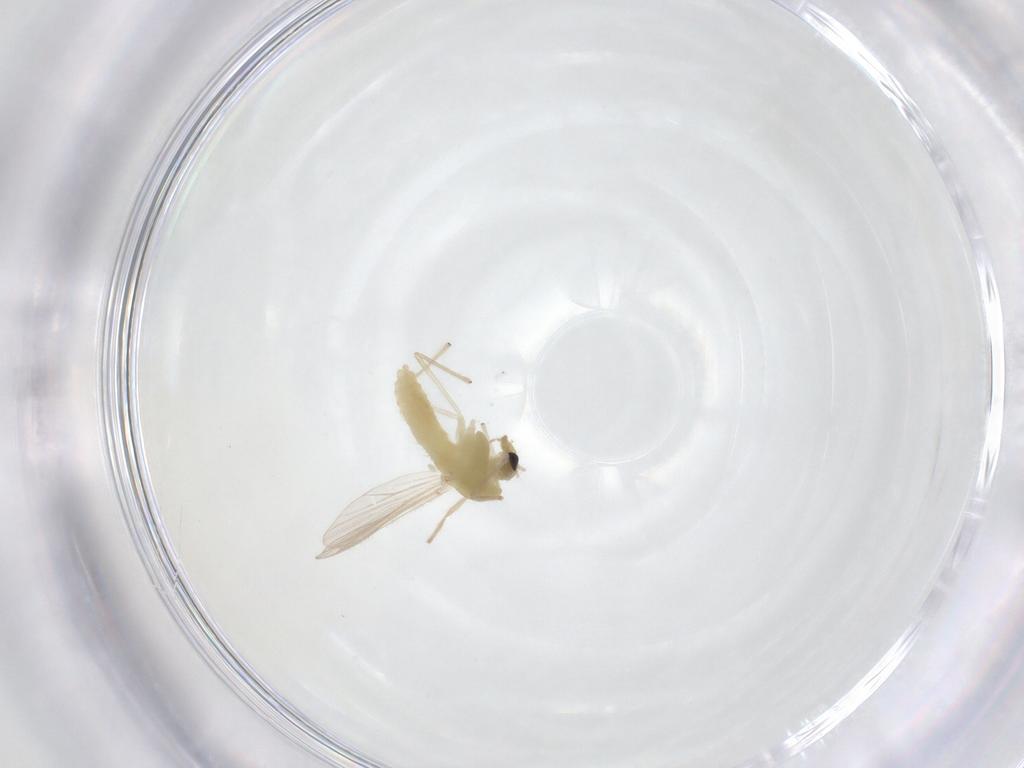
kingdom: Animalia
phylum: Arthropoda
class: Insecta
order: Diptera
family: Chironomidae
